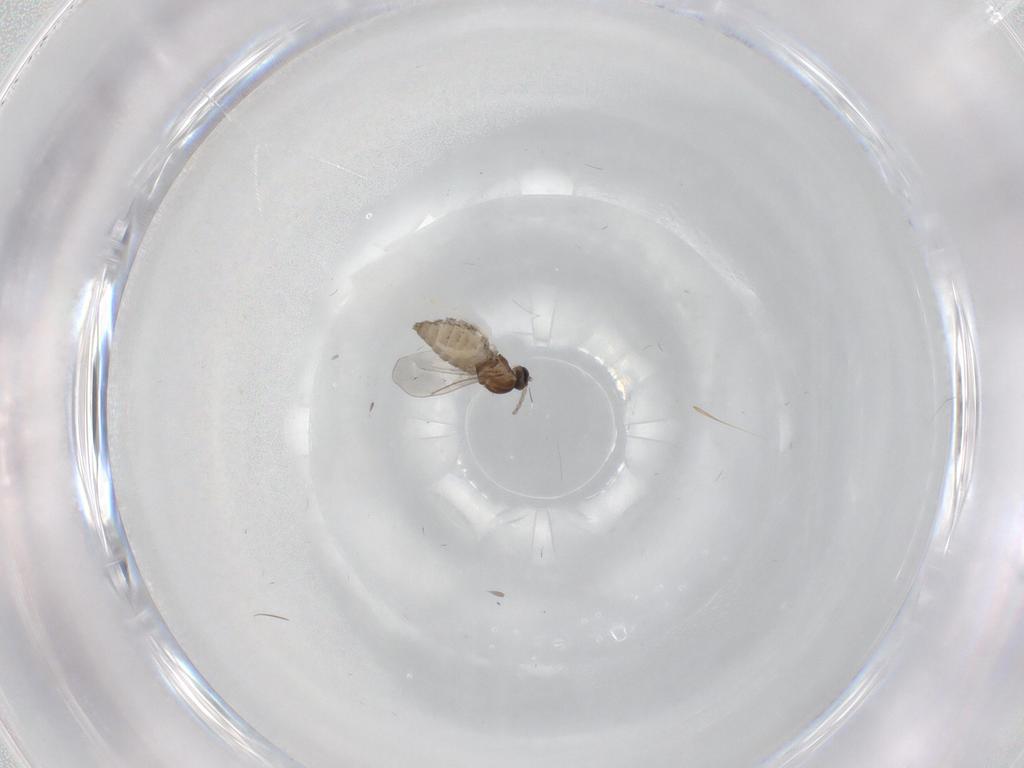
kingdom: Animalia
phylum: Arthropoda
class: Insecta
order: Diptera
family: Cecidomyiidae
